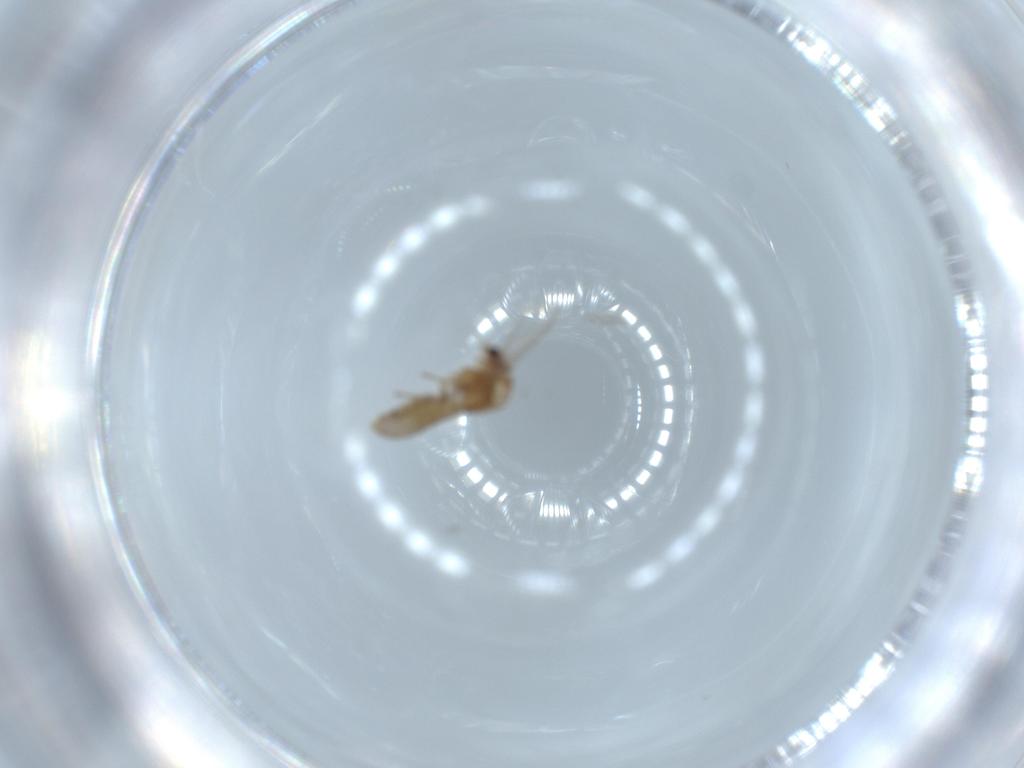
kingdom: Animalia
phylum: Arthropoda
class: Insecta
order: Diptera
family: Chironomidae
